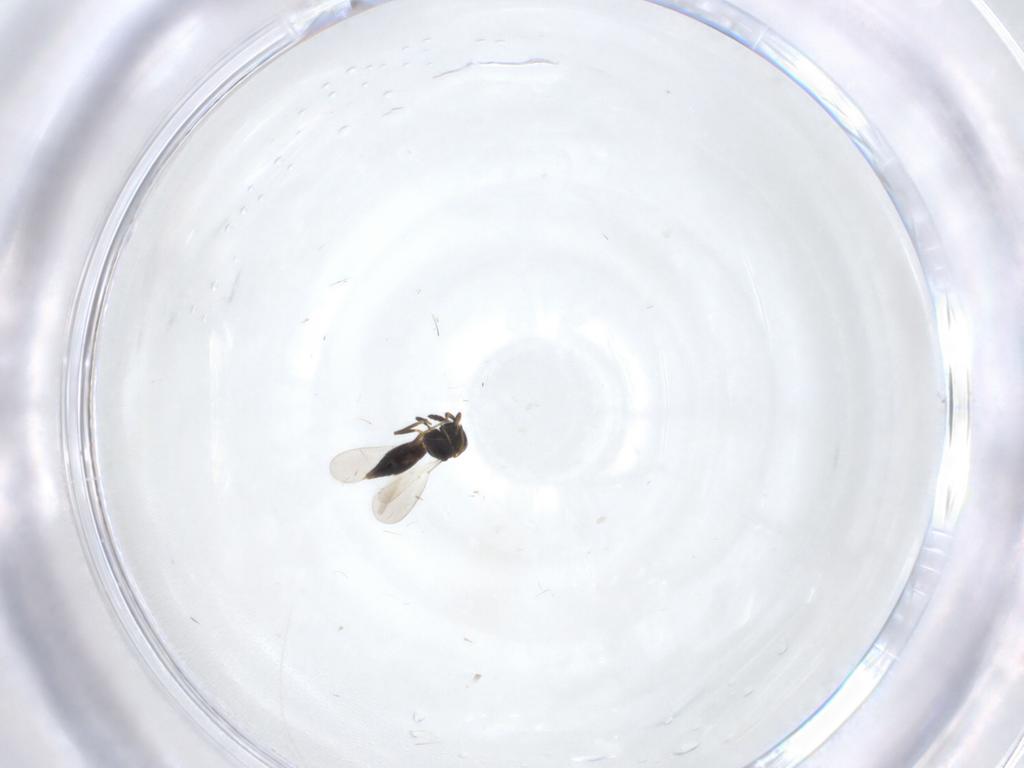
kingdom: Animalia
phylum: Arthropoda
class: Insecta
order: Hymenoptera
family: Platygastridae
